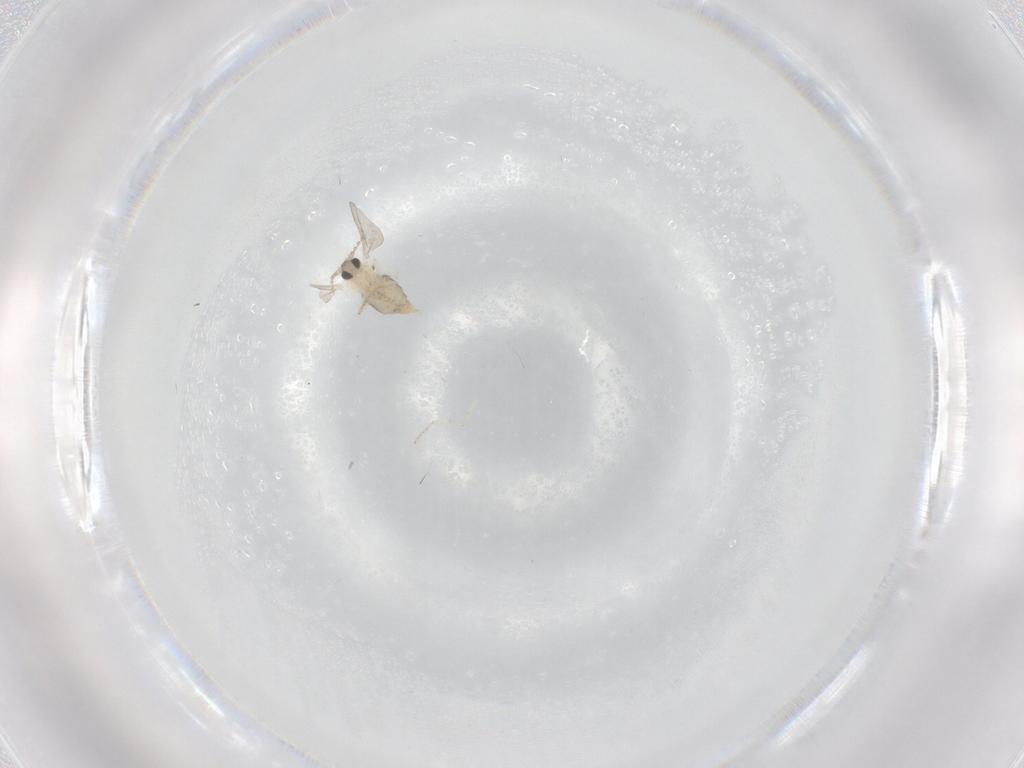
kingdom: Animalia
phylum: Arthropoda
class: Insecta
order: Diptera
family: Cecidomyiidae
